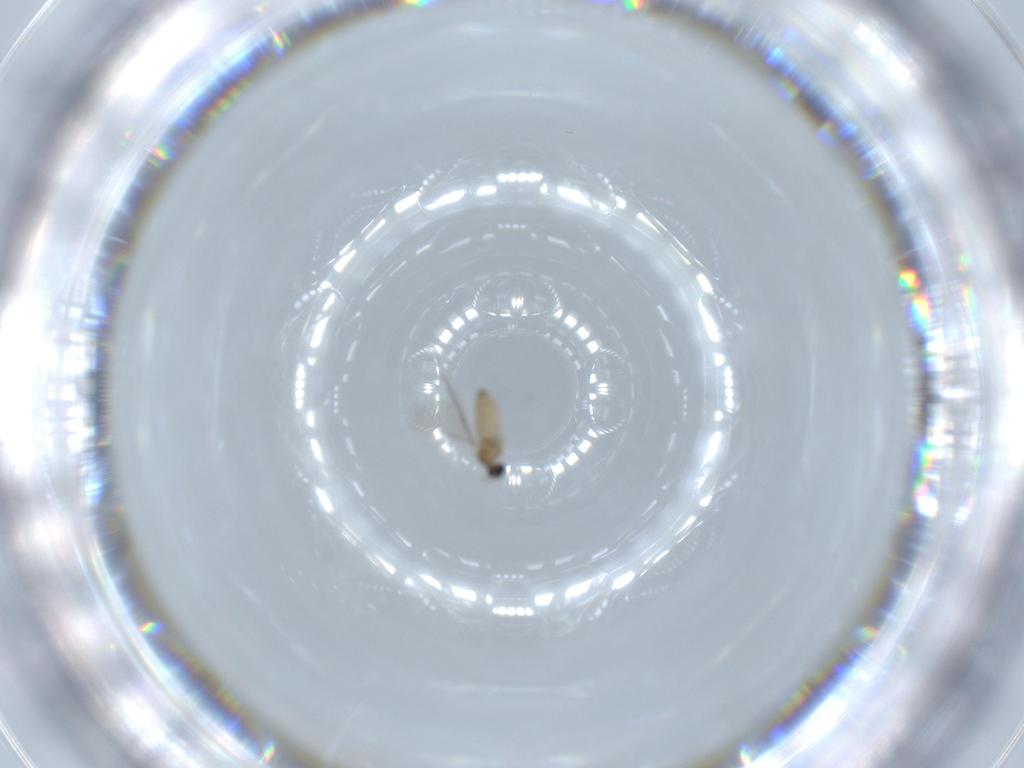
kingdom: Animalia
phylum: Arthropoda
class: Insecta
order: Diptera
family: Cecidomyiidae
